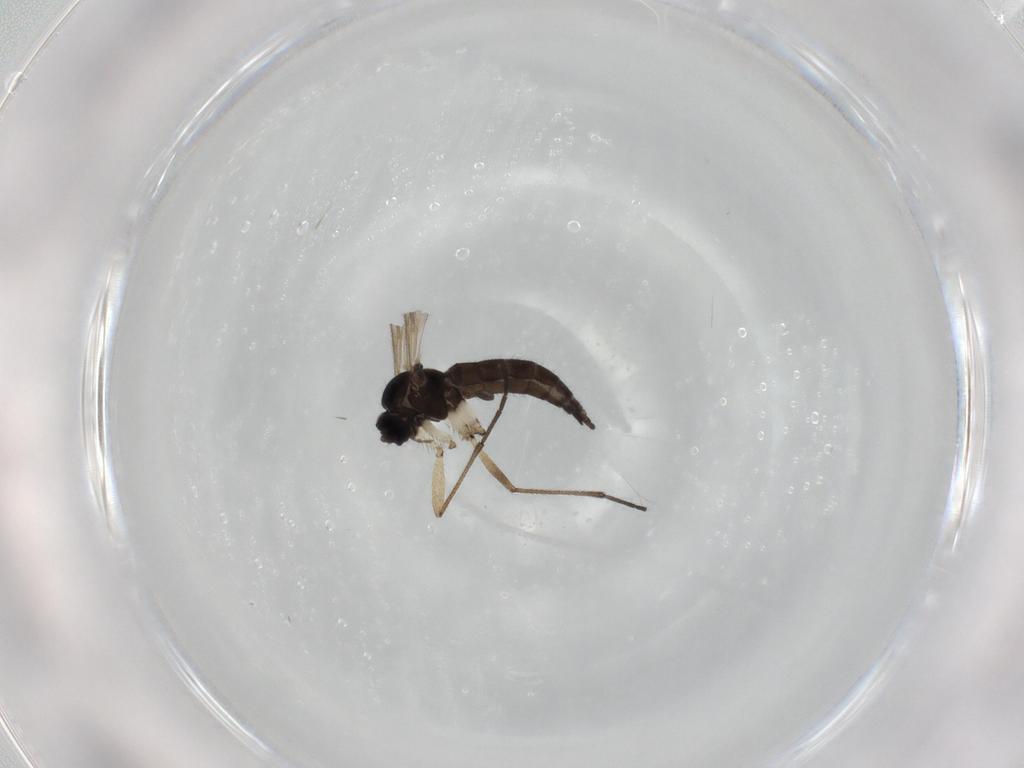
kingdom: Animalia
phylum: Arthropoda
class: Insecta
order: Diptera
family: Sciaridae
